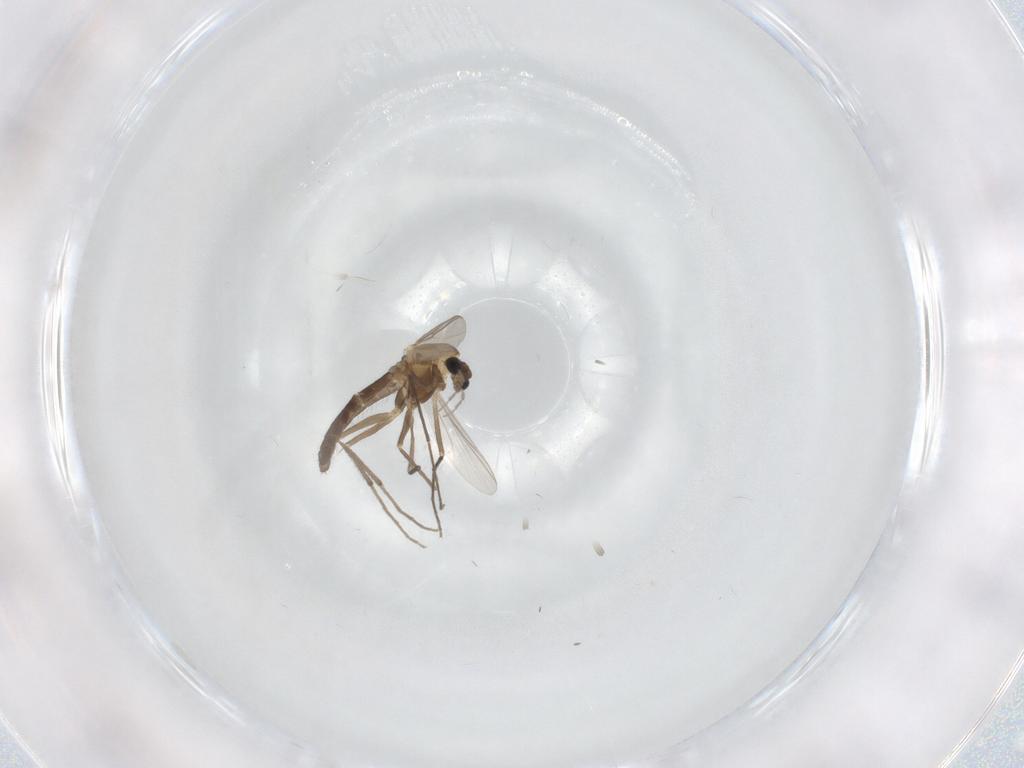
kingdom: Animalia
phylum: Arthropoda
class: Insecta
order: Diptera
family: Chironomidae
